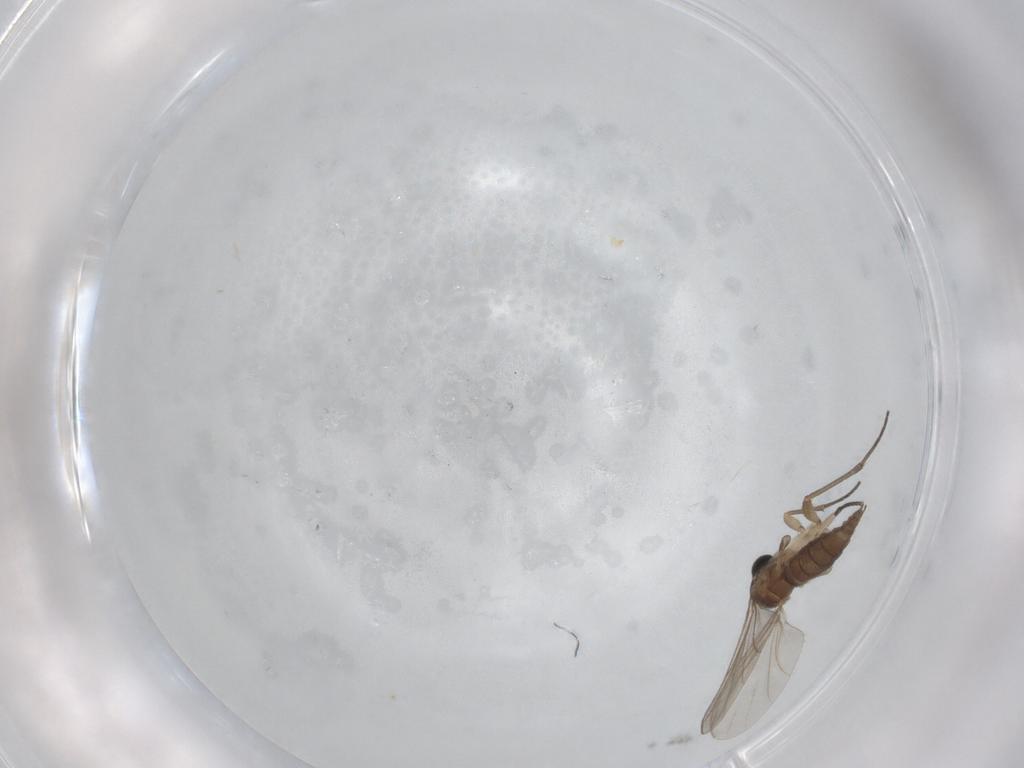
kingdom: Animalia
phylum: Arthropoda
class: Insecta
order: Diptera
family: Sciaridae
